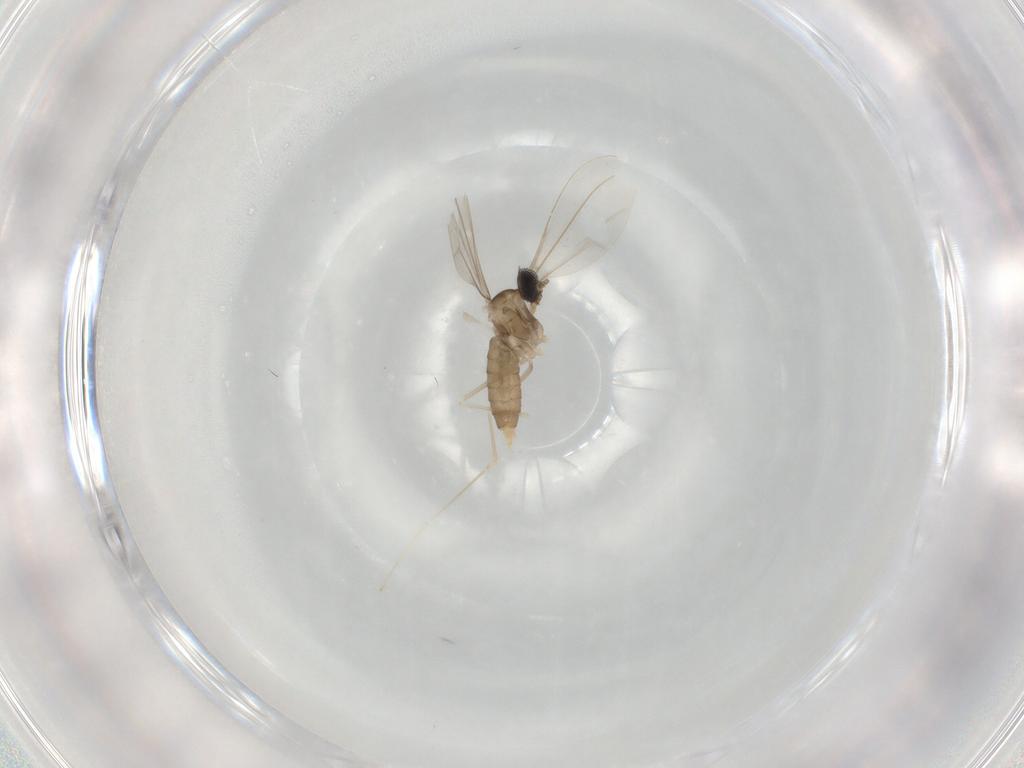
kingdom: Animalia
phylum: Arthropoda
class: Insecta
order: Diptera
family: Cecidomyiidae
